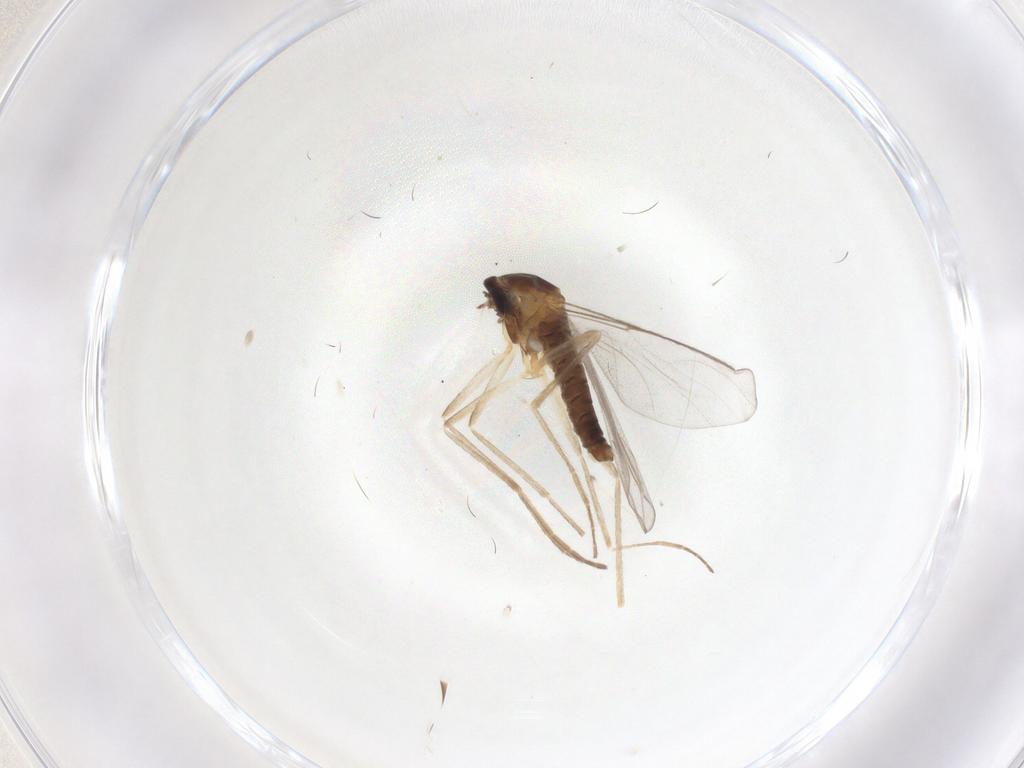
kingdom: Animalia
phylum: Arthropoda
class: Insecta
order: Diptera
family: Cecidomyiidae
